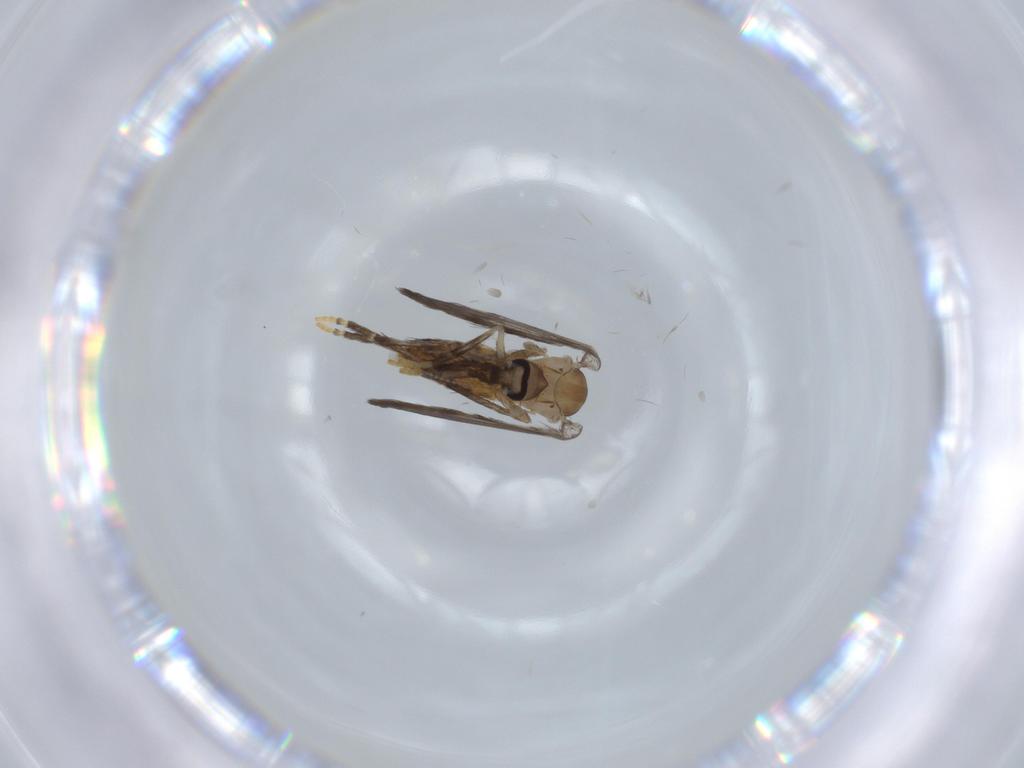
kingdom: Animalia
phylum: Arthropoda
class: Insecta
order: Diptera
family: Psychodidae
